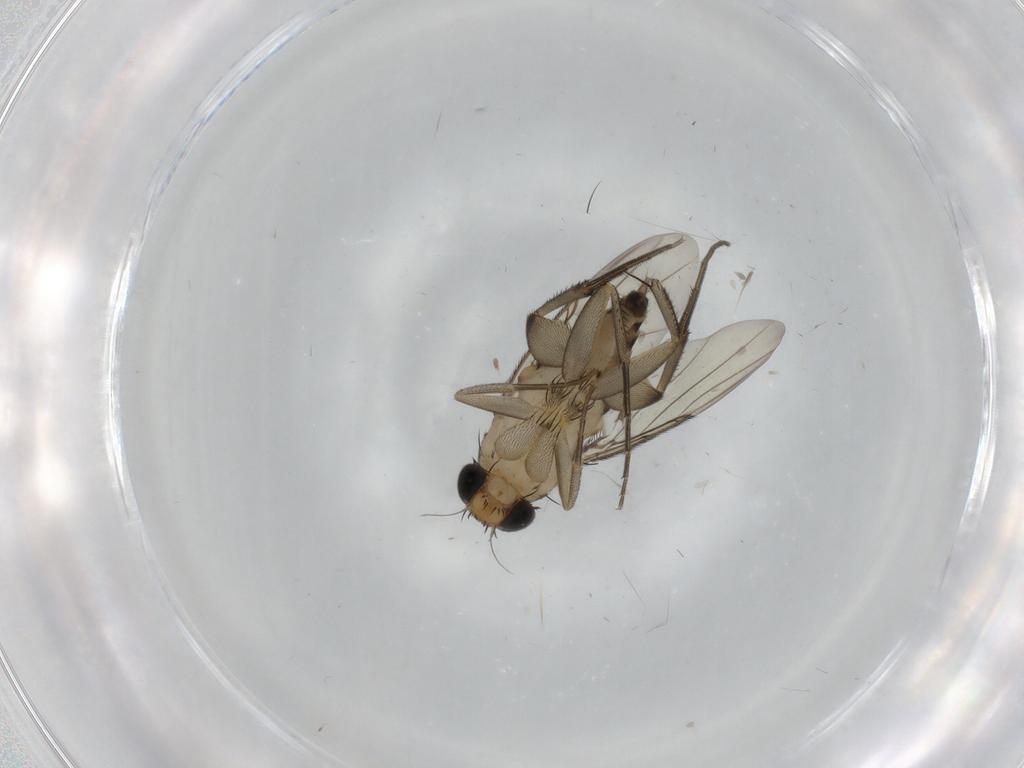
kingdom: Animalia
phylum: Arthropoda
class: Insecta
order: Diptera
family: Phoridae
